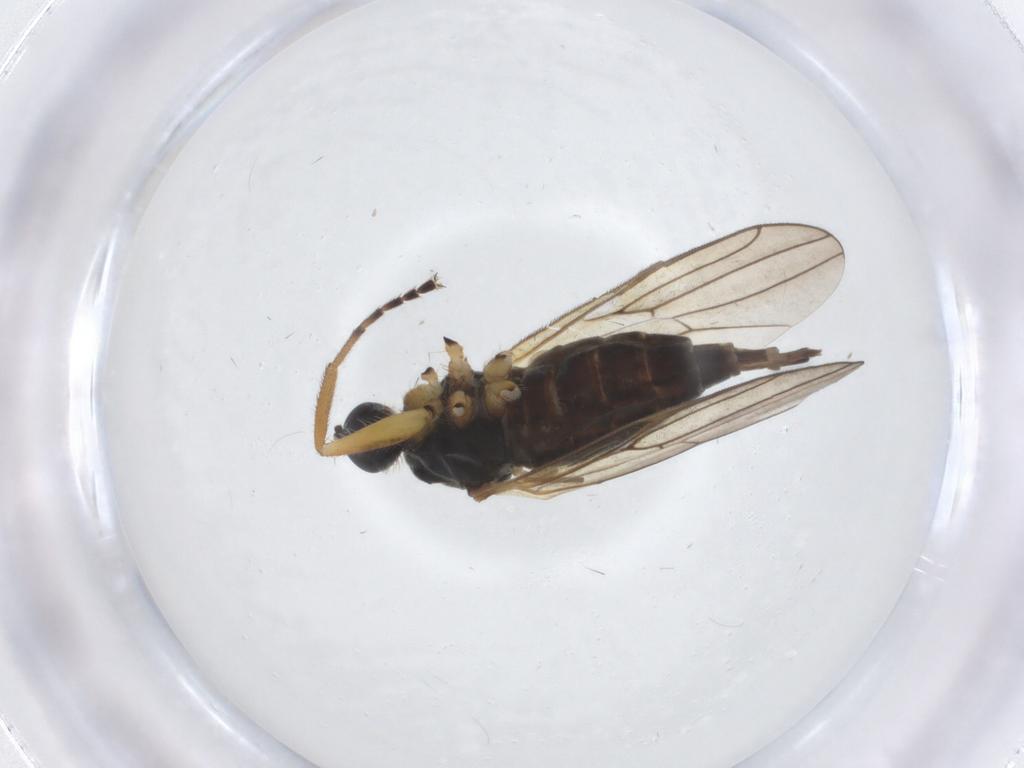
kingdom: Animalia
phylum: Arthropoda
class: Insecta
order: Diptera
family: Hybotidae
